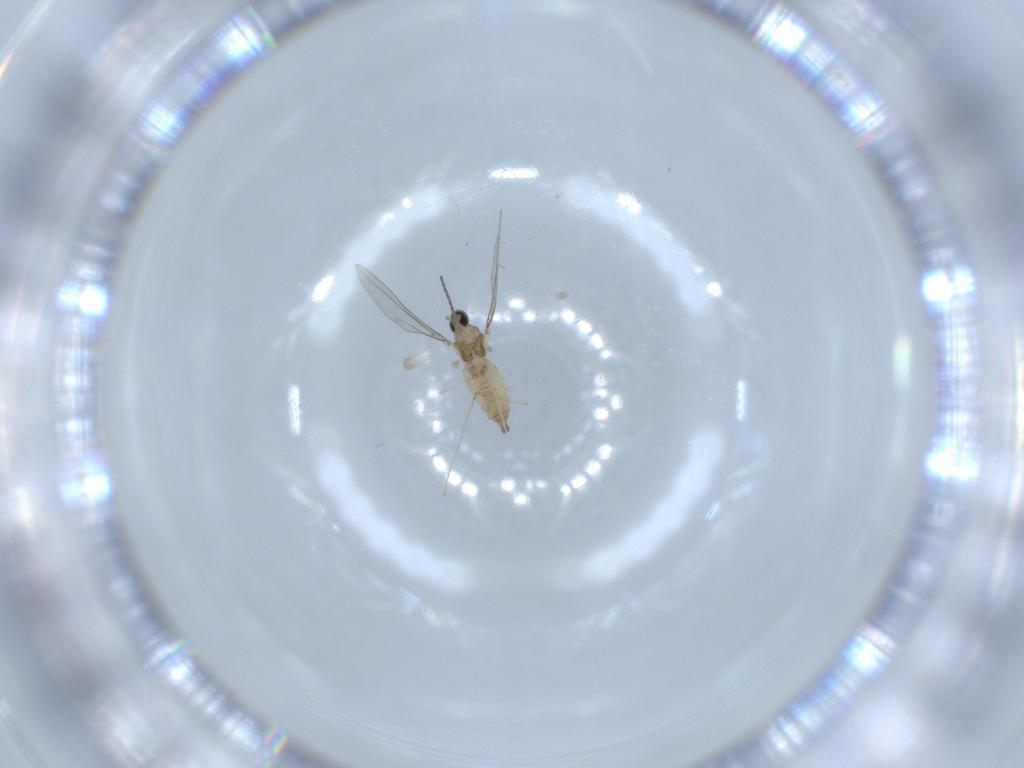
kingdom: Animalia
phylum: Arthropoda
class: Insecta
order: Diptera
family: Cecidomyiidae
